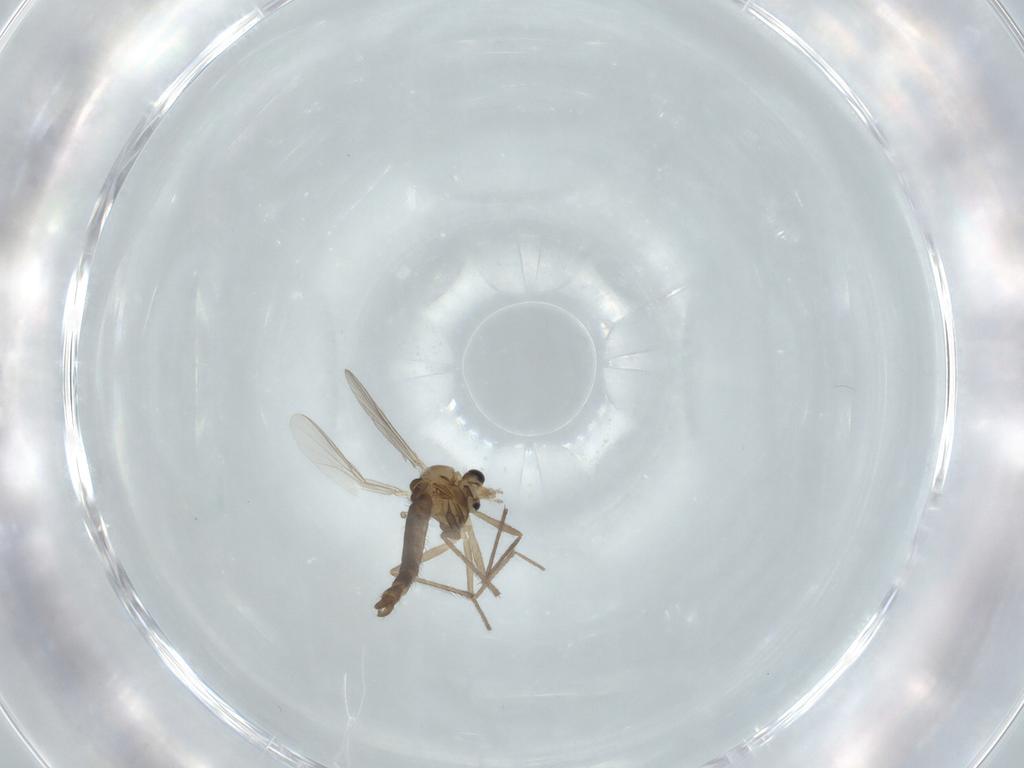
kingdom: Animalia
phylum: Arthropoda
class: Insecta
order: Diptera
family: Chironomidae
